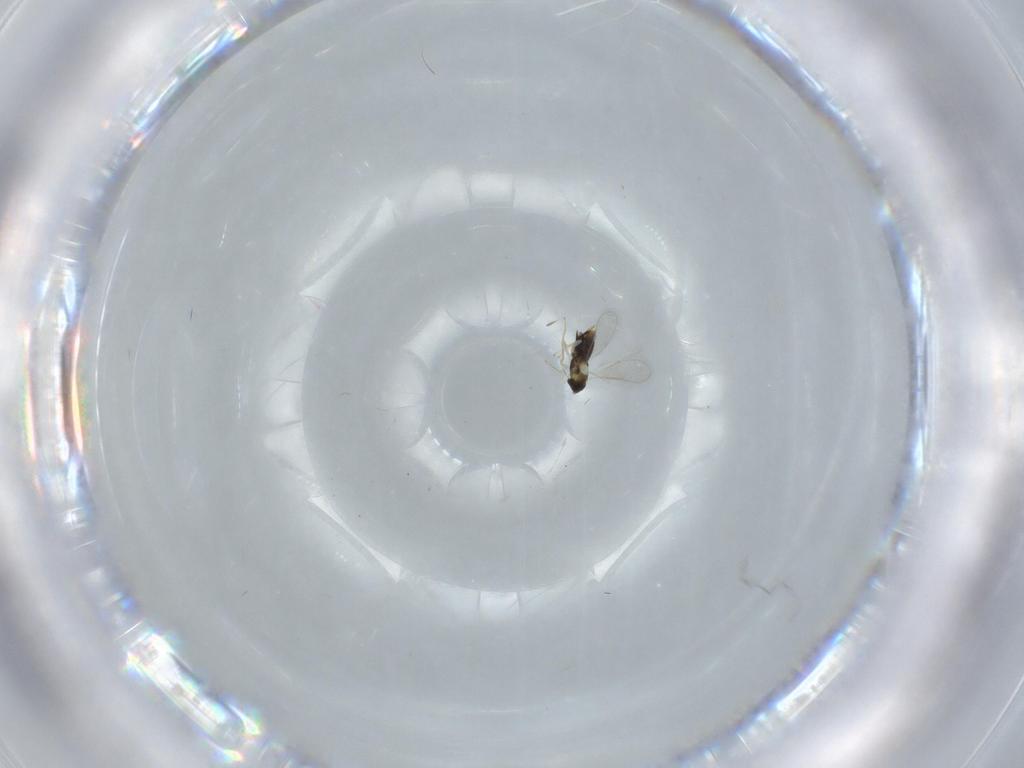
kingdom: Animalia
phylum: Arthropoda
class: Insecta
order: Hymenoptera
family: Aphelinidae
